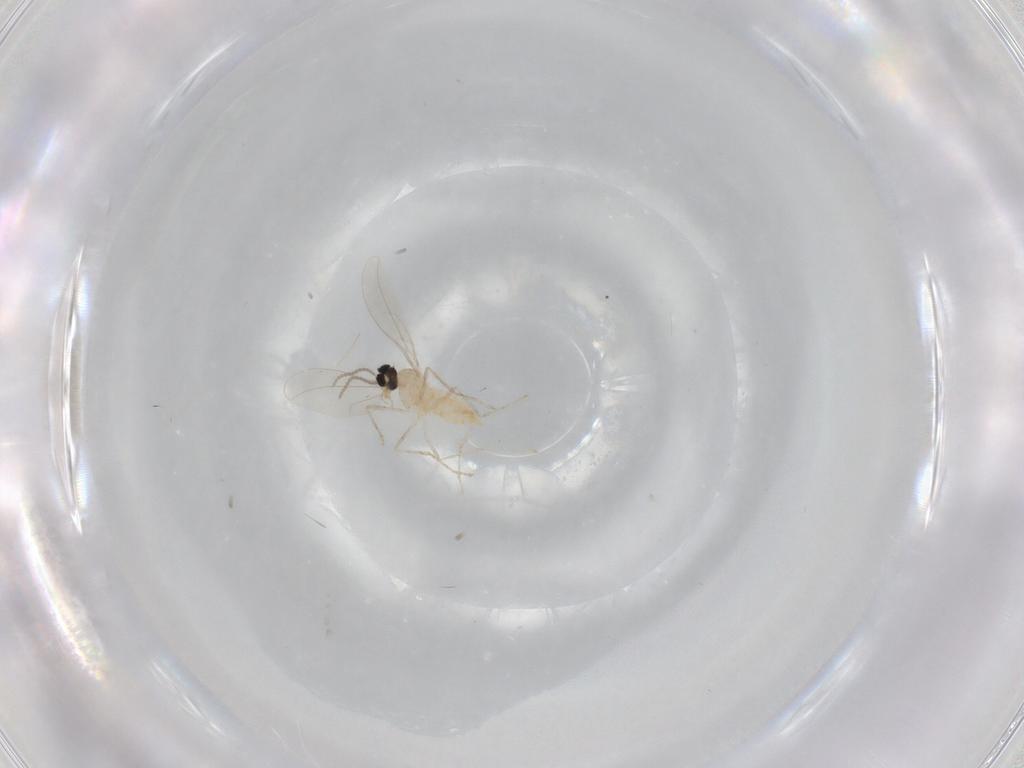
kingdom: Animalia
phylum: Arthropoda
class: Insecta
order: Diptera
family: Cecidomyiidae
